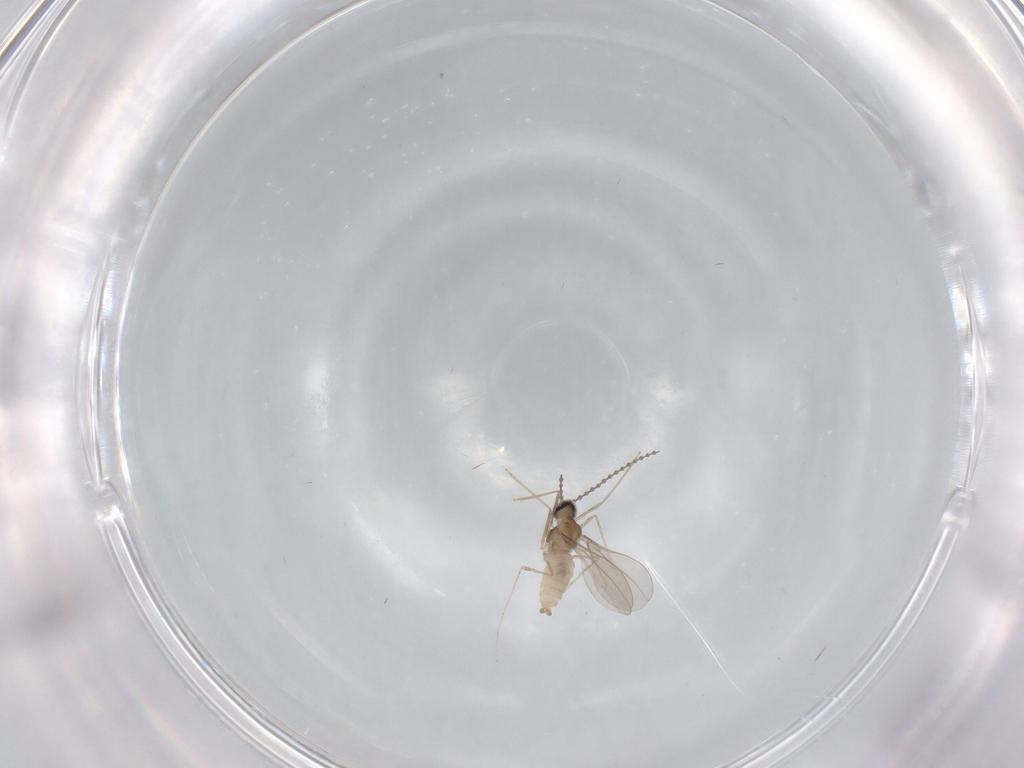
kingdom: Animalia
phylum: Arthropoda
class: Insecta
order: Diptera
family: Cecidomyiidae
